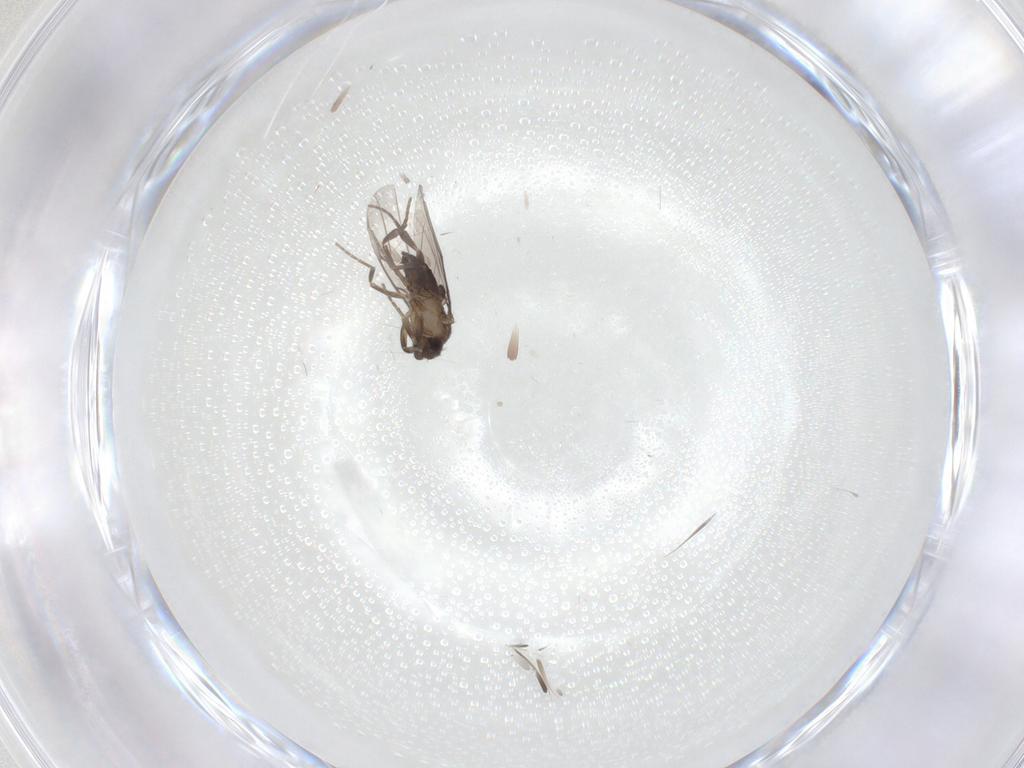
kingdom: Animalia
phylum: Arthropoda
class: Insecta
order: Diptera
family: Phoridae
